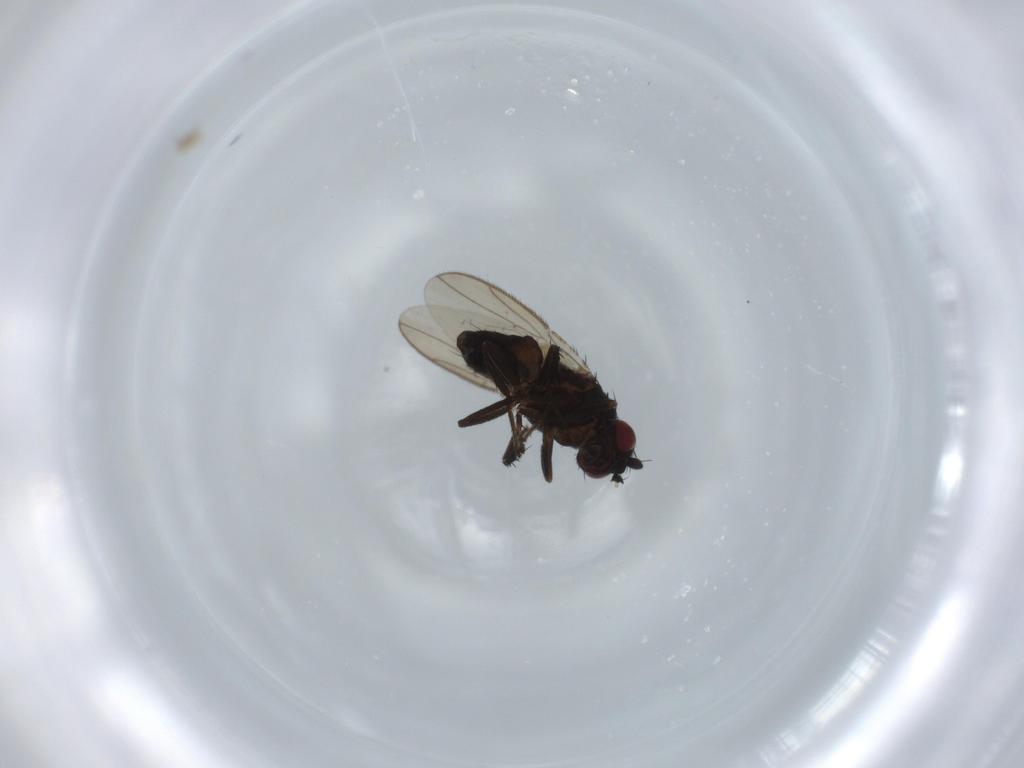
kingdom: Animalia
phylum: Arthropoda
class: Insecta
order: Diptera
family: Sphaeroceridae
